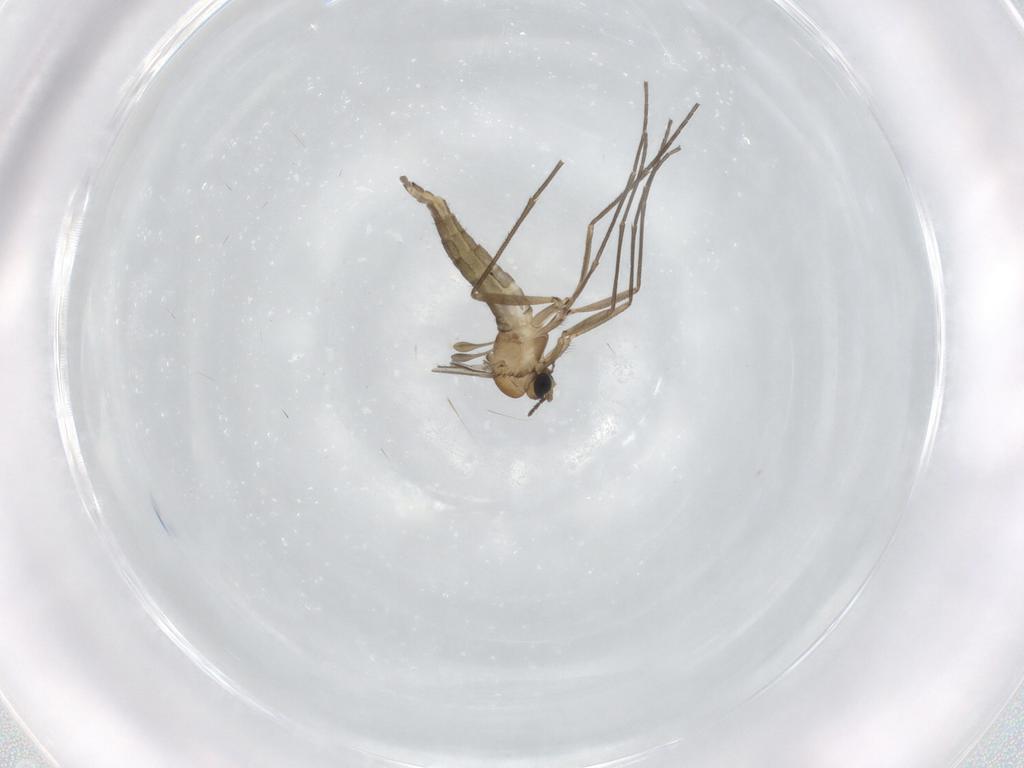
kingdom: Animalia
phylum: Arthropoda
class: Insecta
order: Diptera
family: Sciaridae
